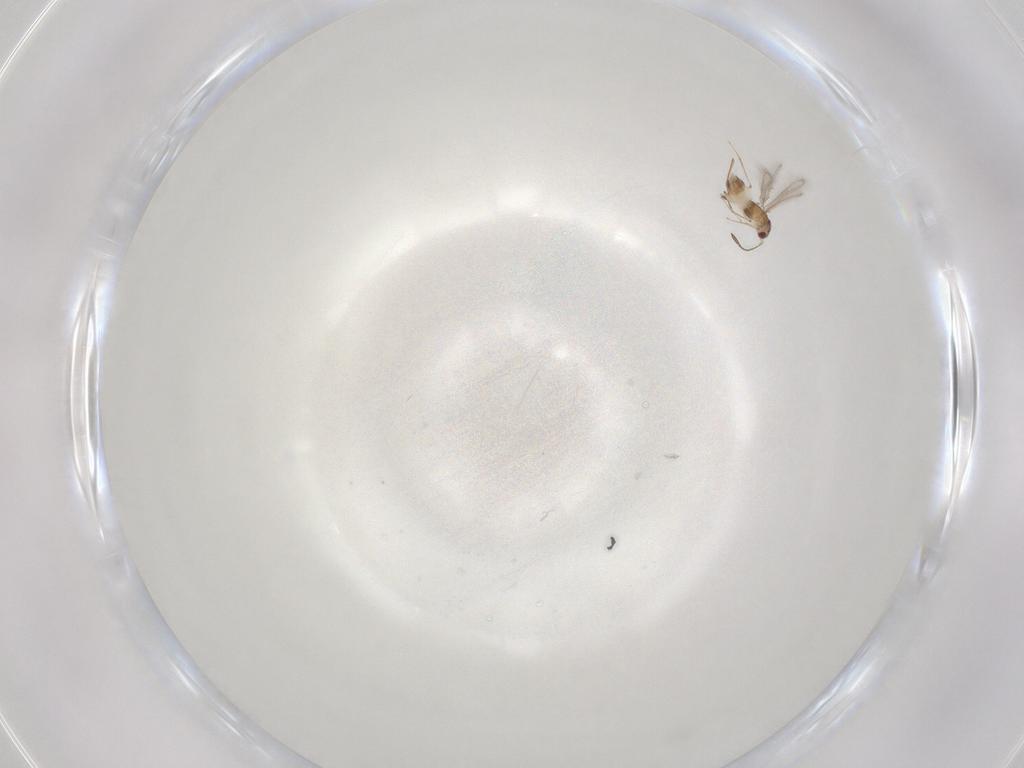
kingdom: Animalia
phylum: Arthropoda
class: Insecta
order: Hymenoptera
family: Mymaridae
